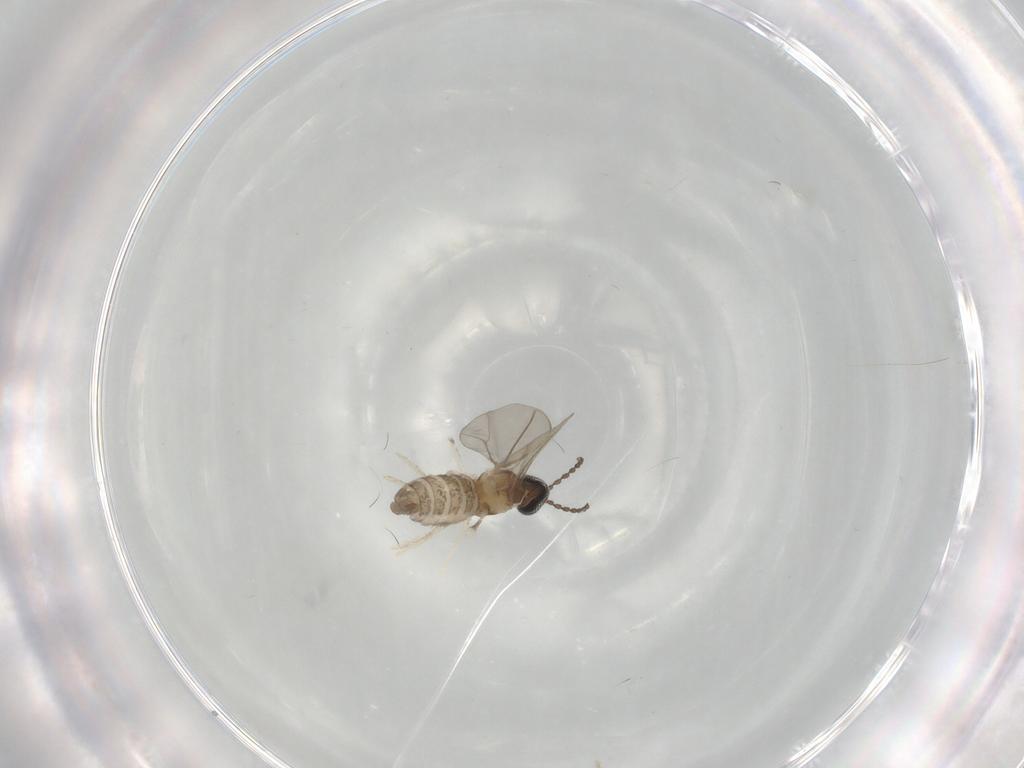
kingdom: Animalia
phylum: Arthropoda
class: Insecta
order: Diptera
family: Cecidomyiidae
